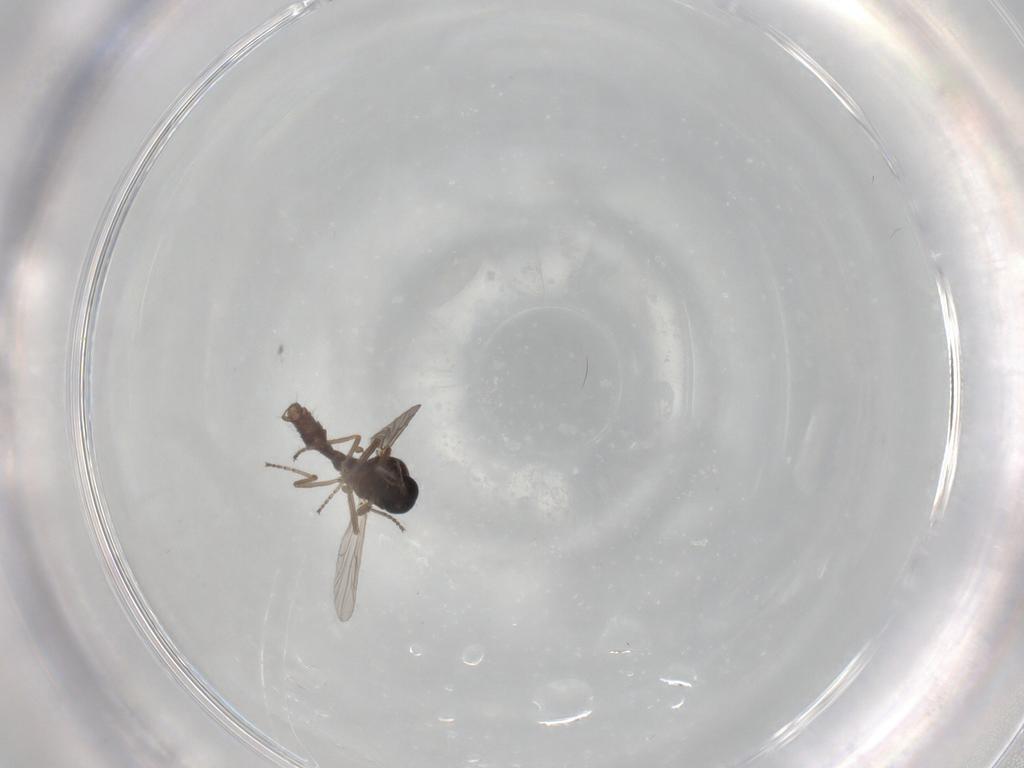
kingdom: Animalia
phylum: Arthropoda
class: Insecta
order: Diptera
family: Ceratopogonidae
